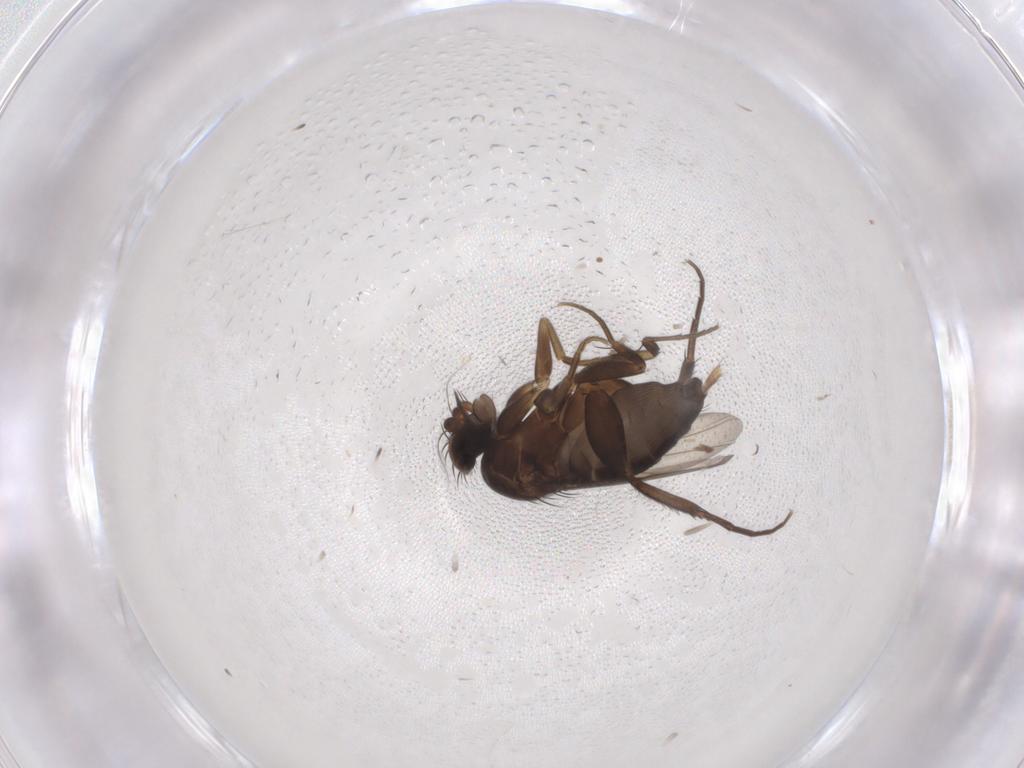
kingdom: Animalia
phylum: Arthropoda
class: Insecta
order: Diptera
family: Phoridae
